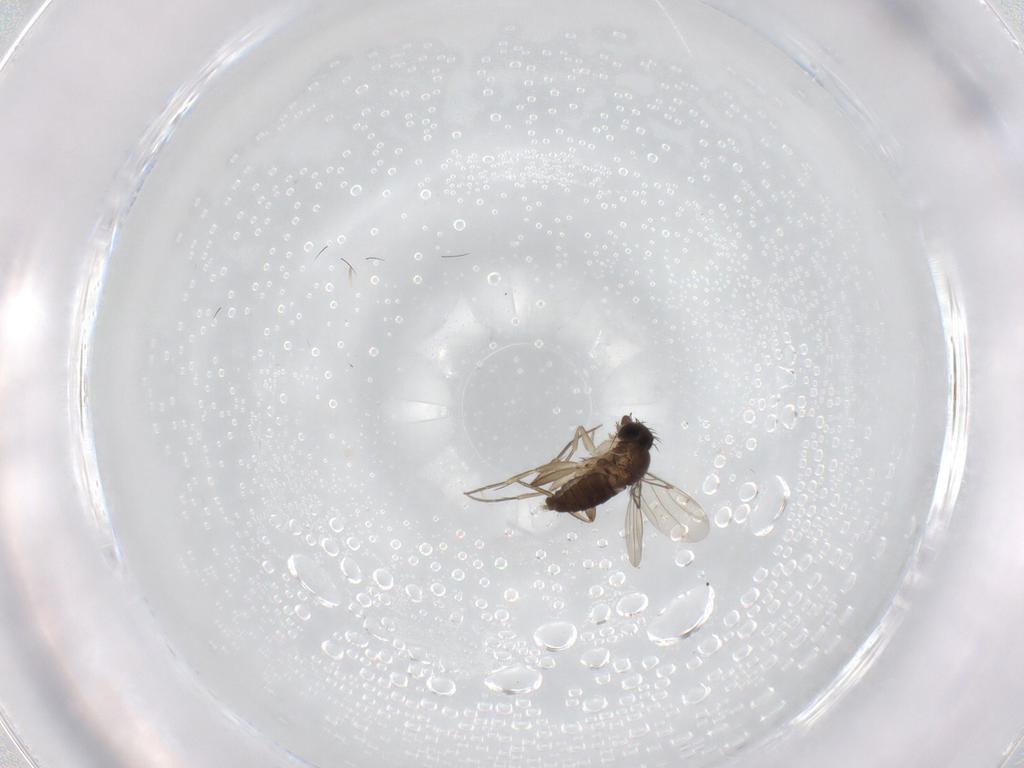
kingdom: Animalia
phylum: Arthropoda
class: Insecta
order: Diptera
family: Phoridae
